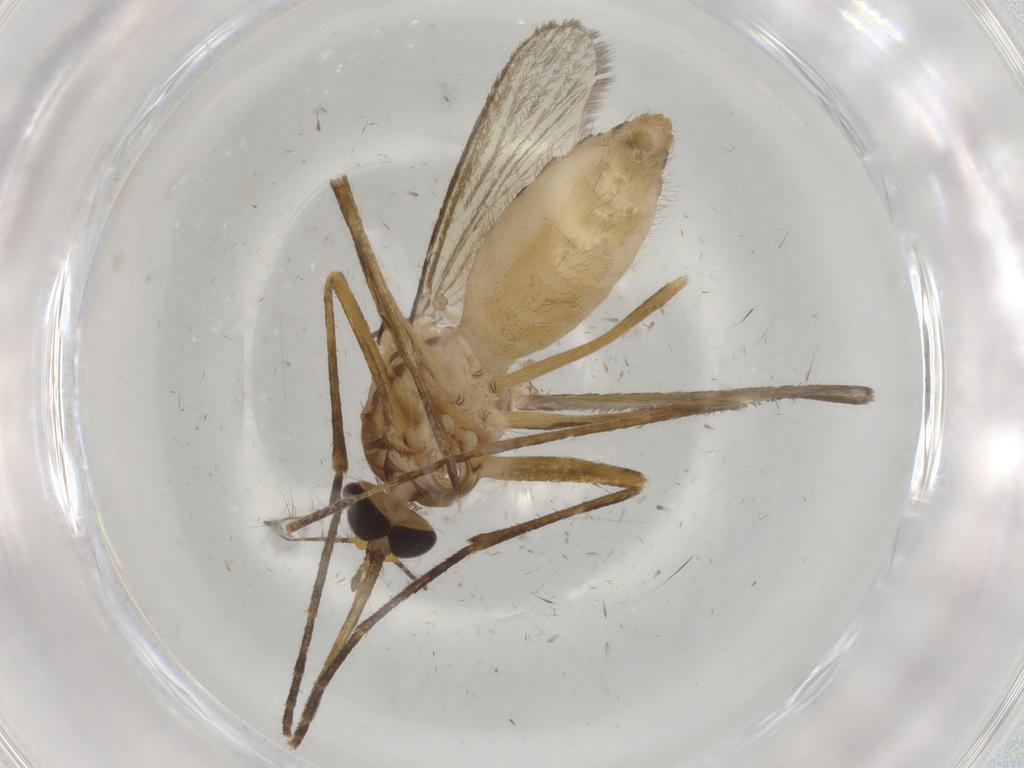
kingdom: Animalia
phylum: Arthropoda
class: Insecta
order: Diptera
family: Culicidae
